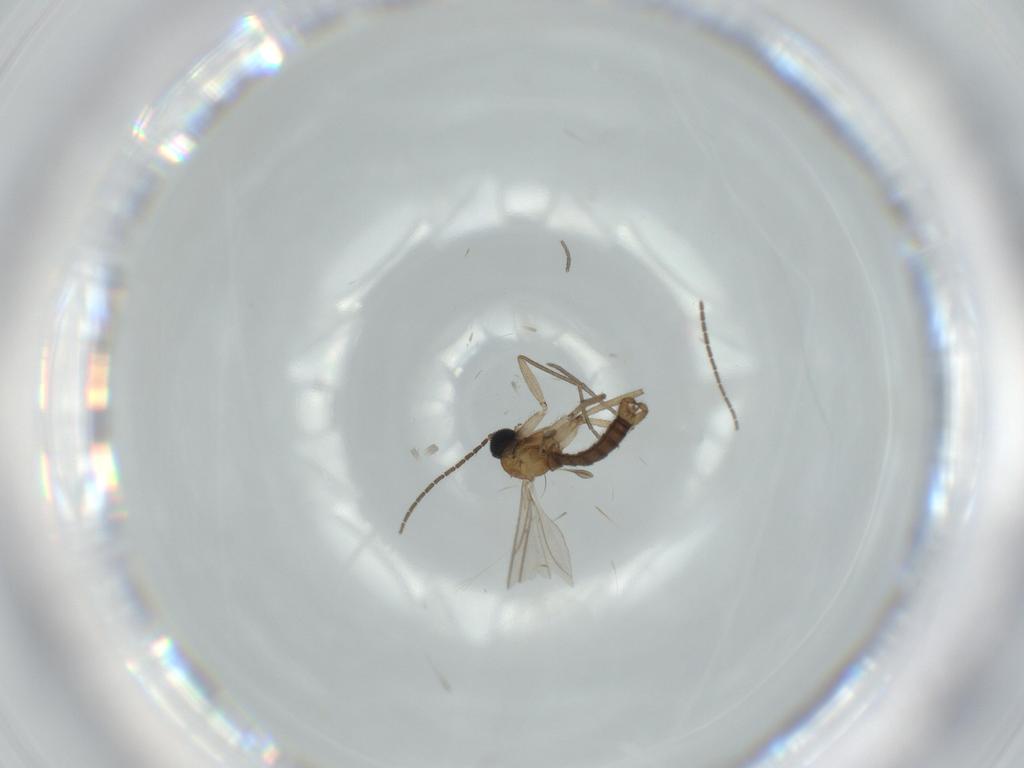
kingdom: Animalia
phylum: Arthropoda
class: Insecta
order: Diptera
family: Sciaridae
